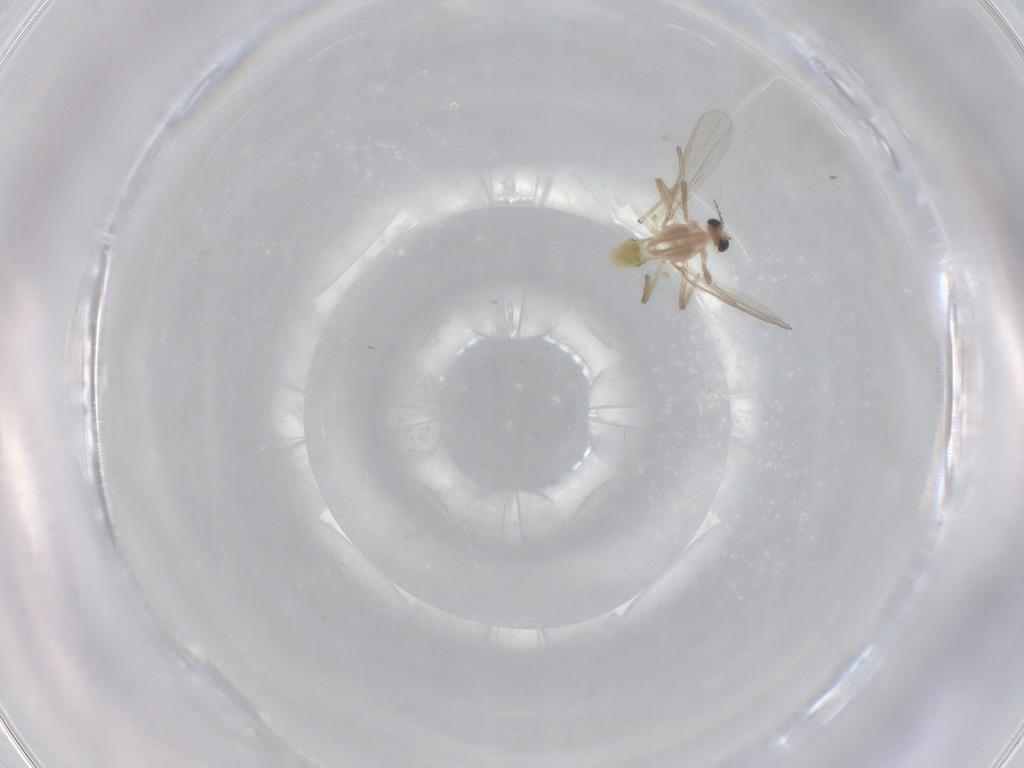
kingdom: Animalia
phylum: Arthropoda
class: Insecta
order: Diptera
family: Chironomidae
